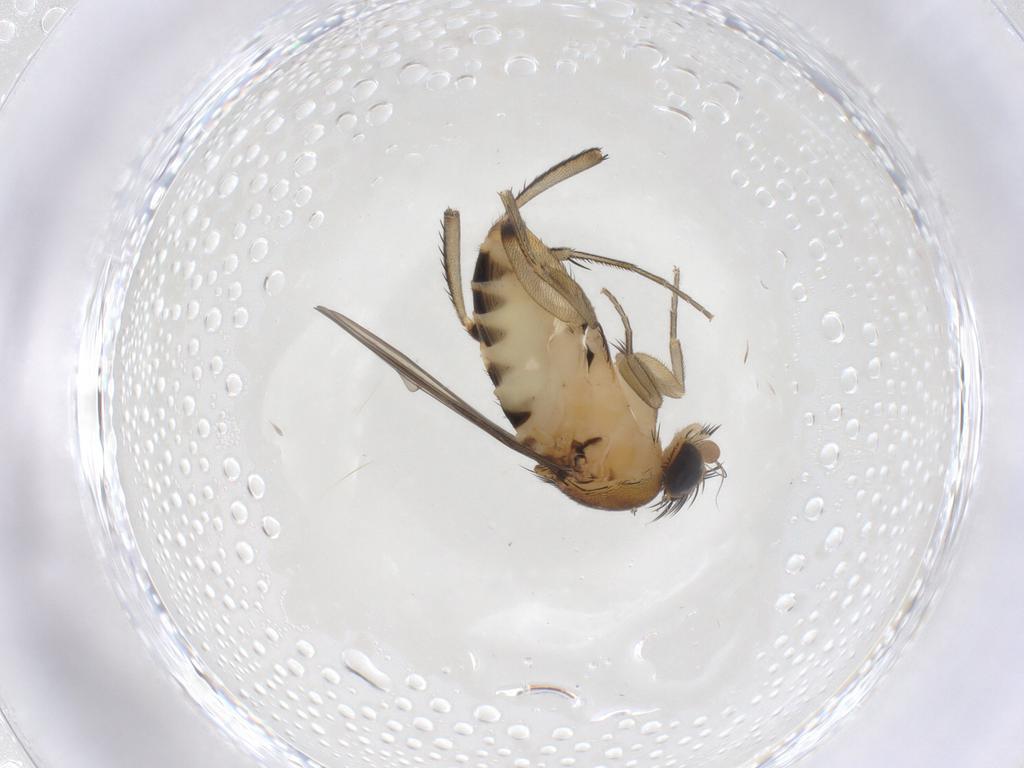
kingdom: Animalia
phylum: Arthropoda
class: Insecta
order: Diptera
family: Phoridae
